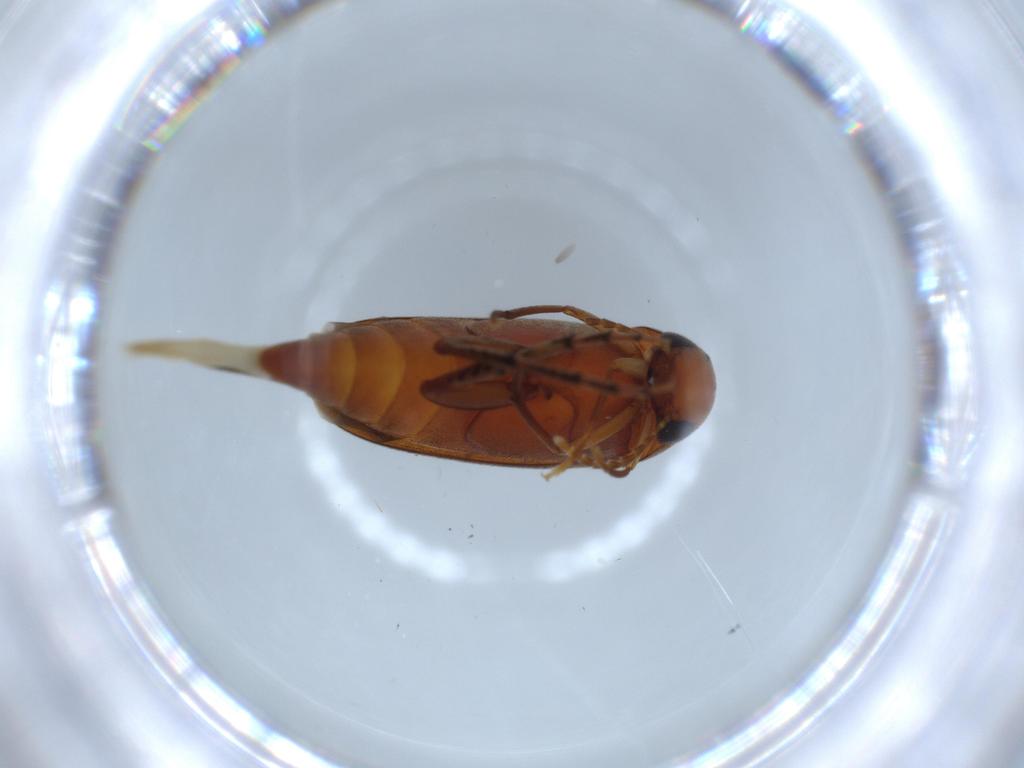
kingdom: Animalia
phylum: Arthropoda
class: Insecta
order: Coleoptera
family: Mordellidae
